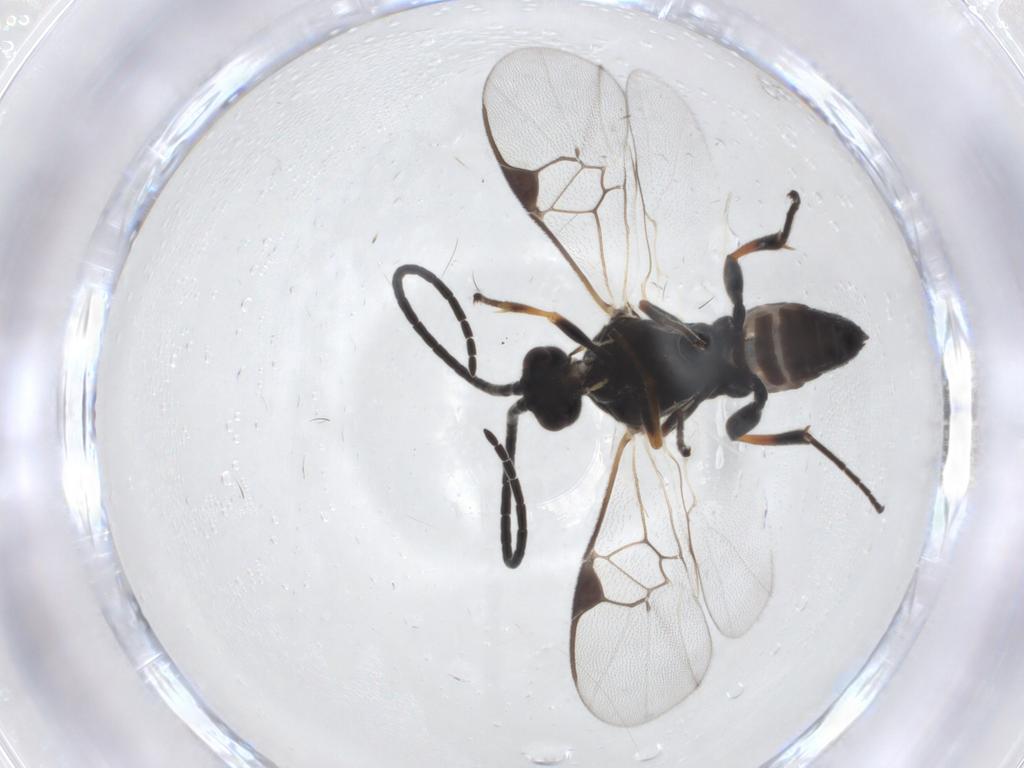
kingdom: Animalia
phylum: Arthropoda
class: Insecta
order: Hymenoptera
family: Braconidae
